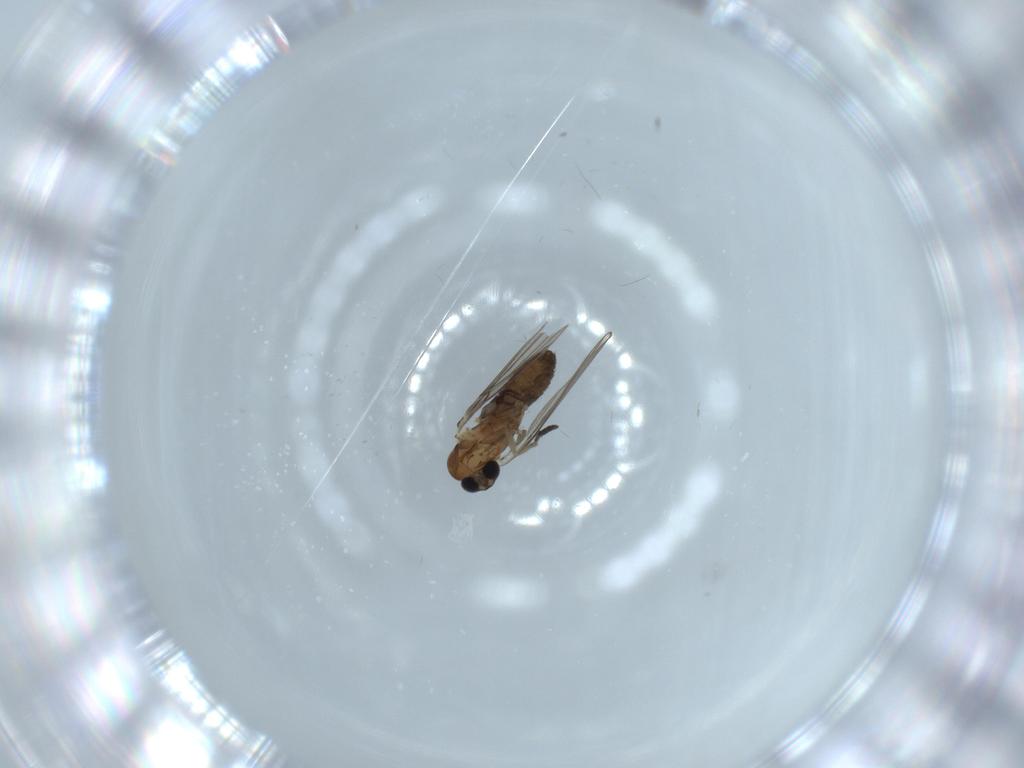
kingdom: Animalia
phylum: Arthropoda
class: Insecta
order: Diptera
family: Psychodidae
